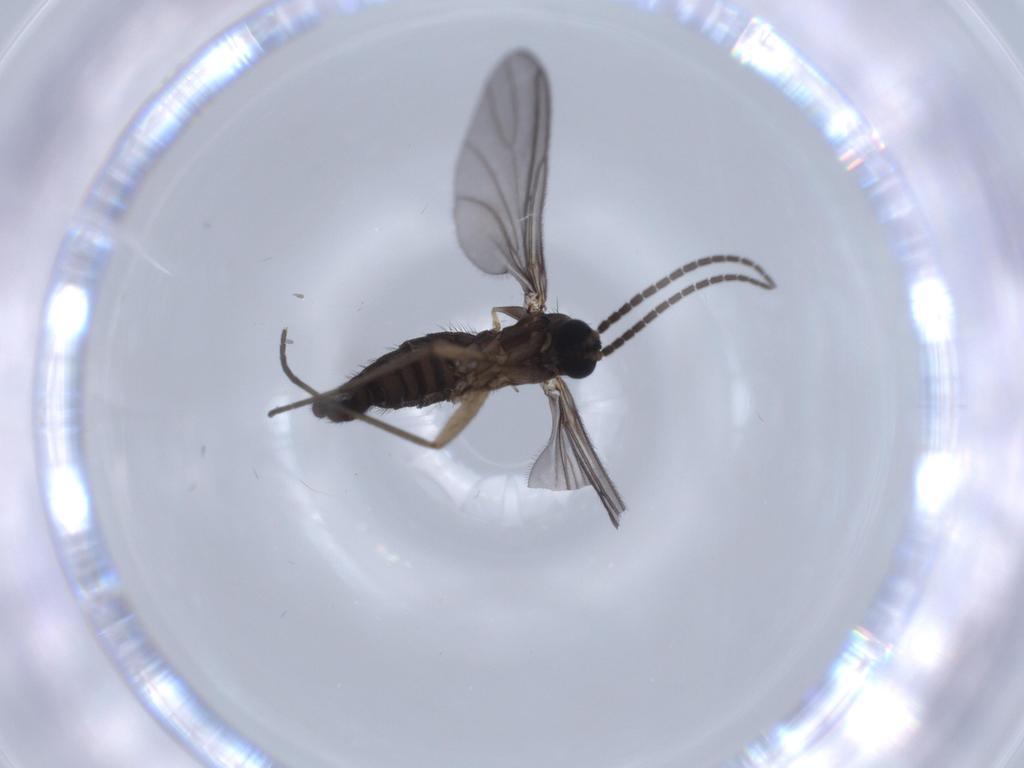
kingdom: Animalia
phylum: Arthropoda
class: Insecta
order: Diptera
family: Sciaridae
